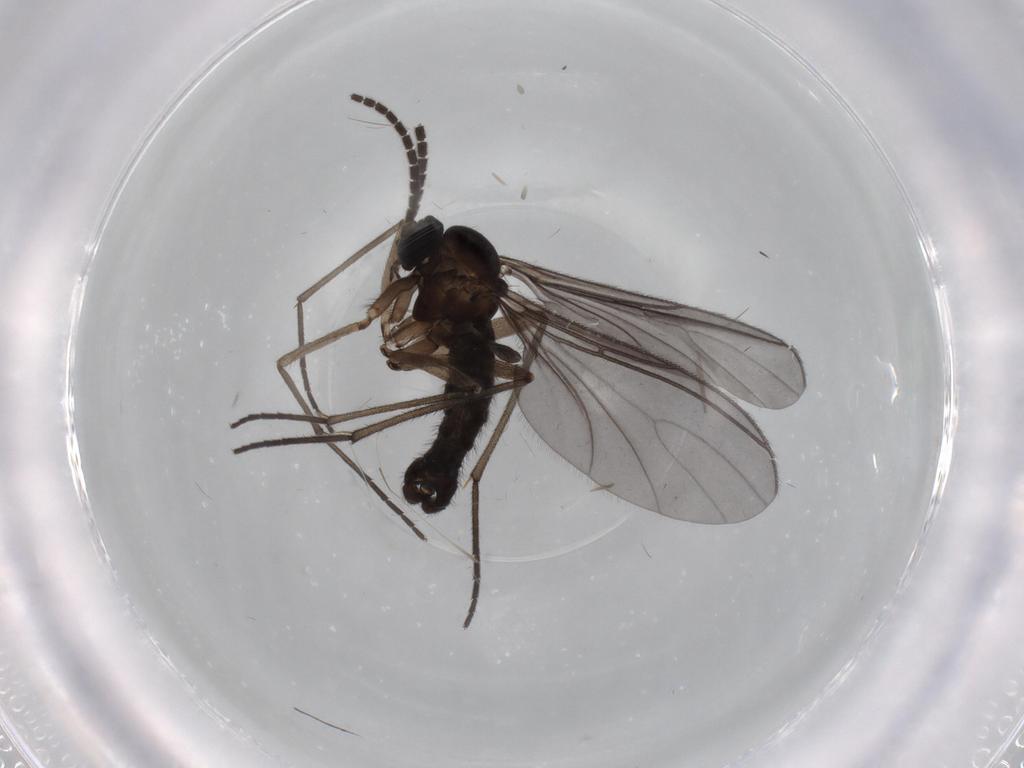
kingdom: Animalia
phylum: Arthropoda
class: Insecta
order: Diptera
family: Sciaridae
